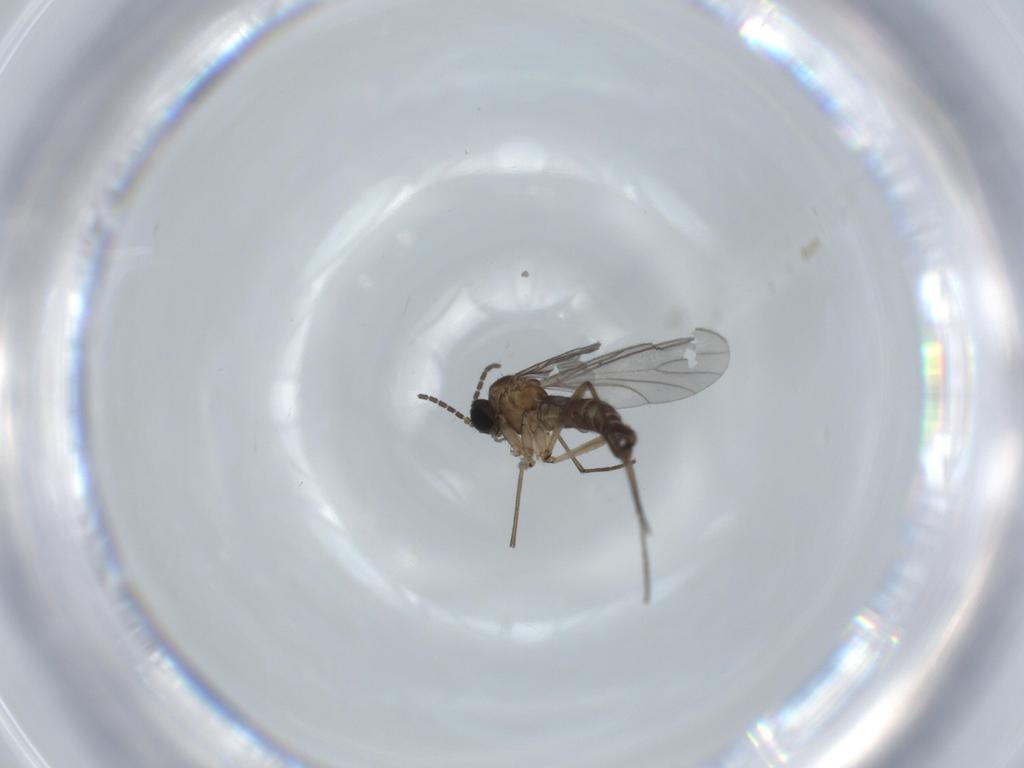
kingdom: Animalia
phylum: Arthropoda
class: Insecta
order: Diptera
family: Sciaridae
